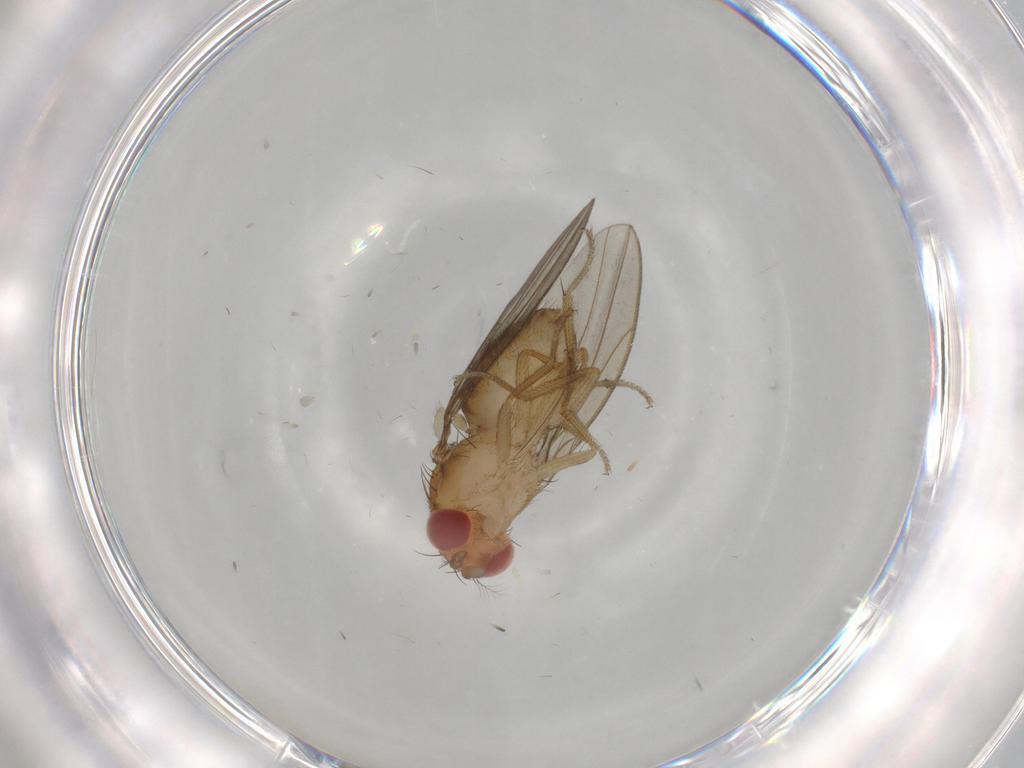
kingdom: Animalia
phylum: Arthropoda
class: Insecta
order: Diptera
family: Drosophilidae
